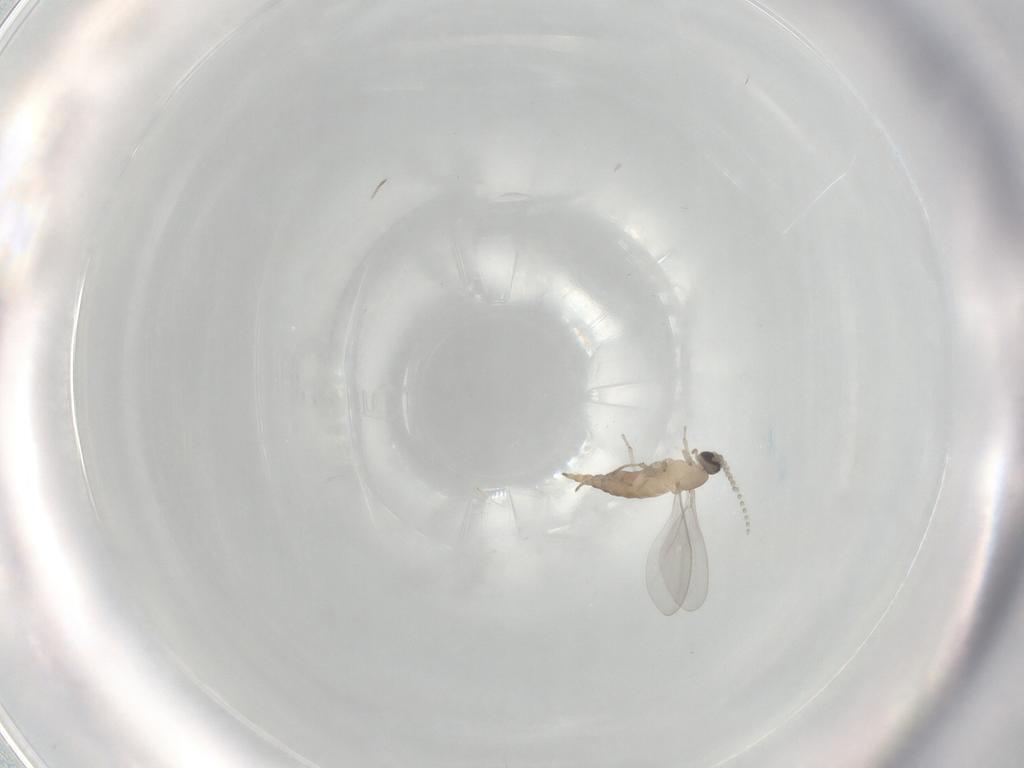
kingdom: Animalia
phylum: Arthropoda
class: Insecta
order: Diptera
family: Cecidomyiidae
